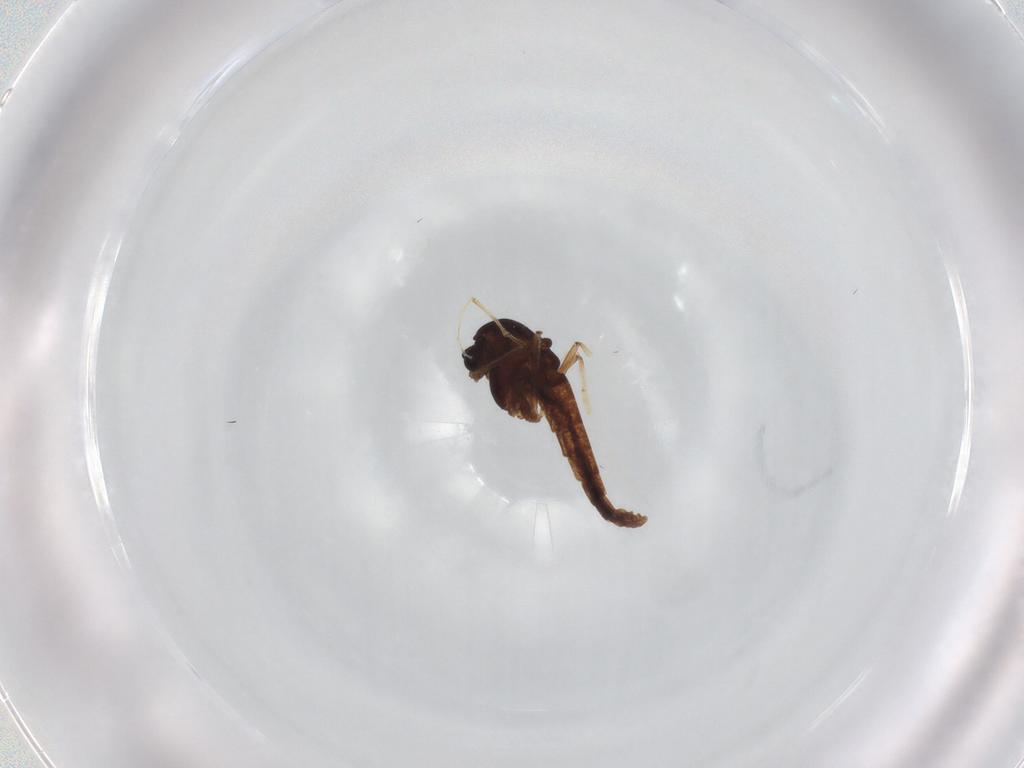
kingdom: Animalia
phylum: Arthropoda
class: Insecta
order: Diptera
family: Chironomidae
